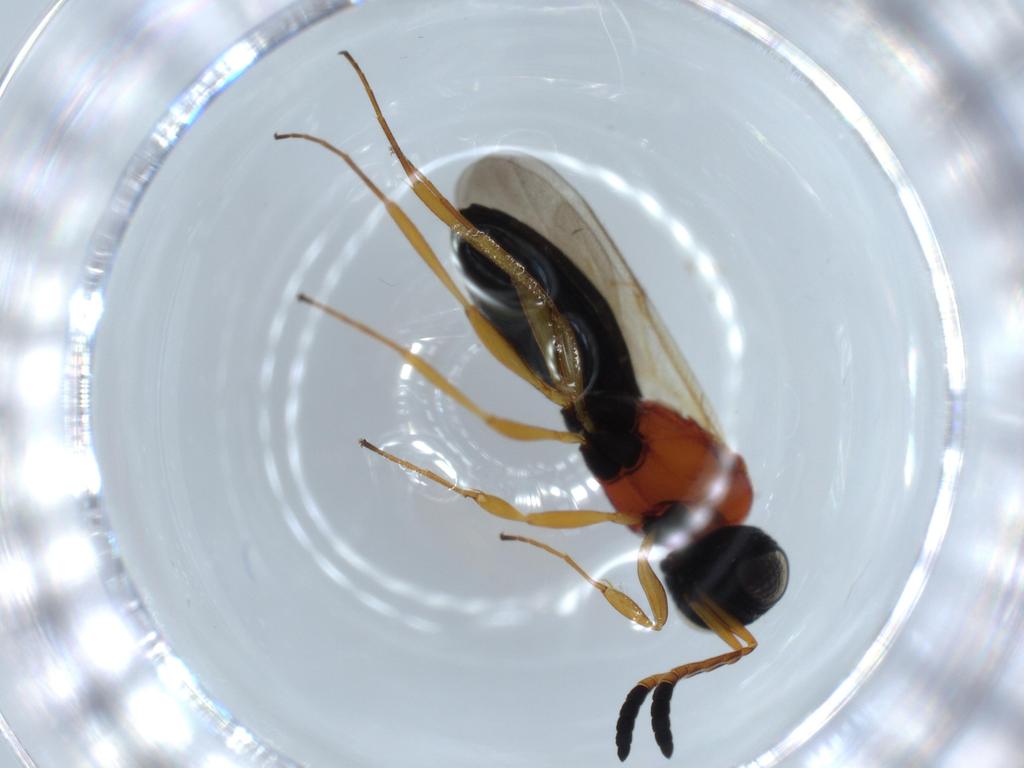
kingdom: Animalia
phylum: Arthropoda
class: Insecta
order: Hymenoptera
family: Scelionidae
